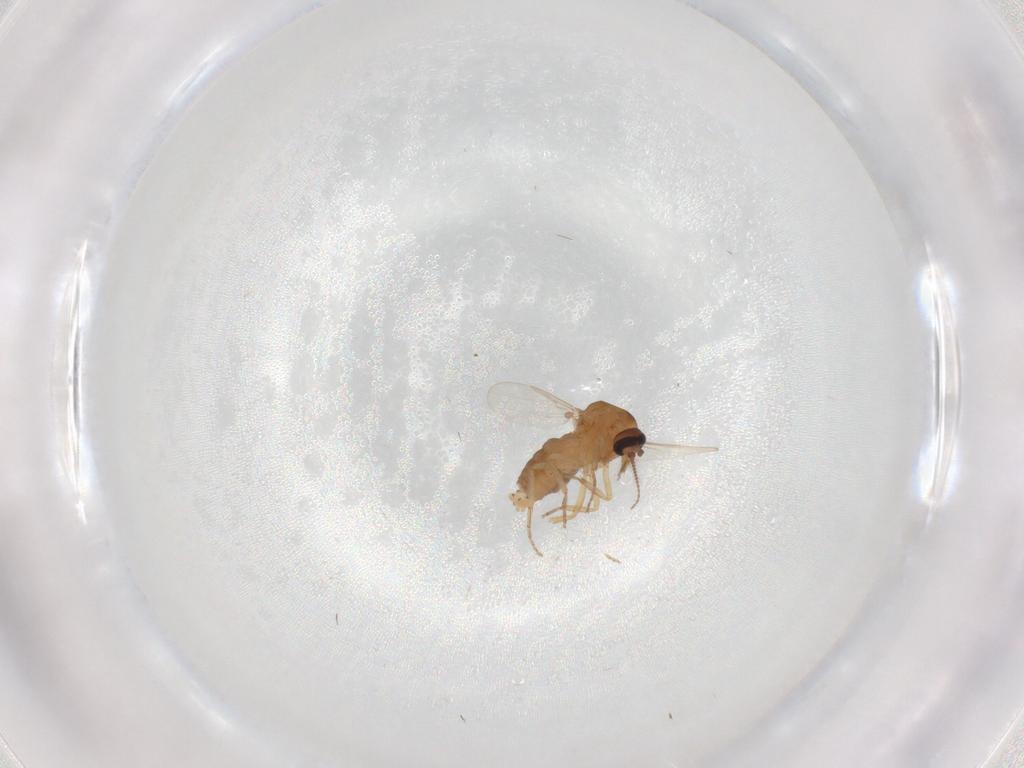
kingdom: Animalia
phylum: Arthropoda
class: Insecta
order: Diptera
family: Ceratopogonidae
